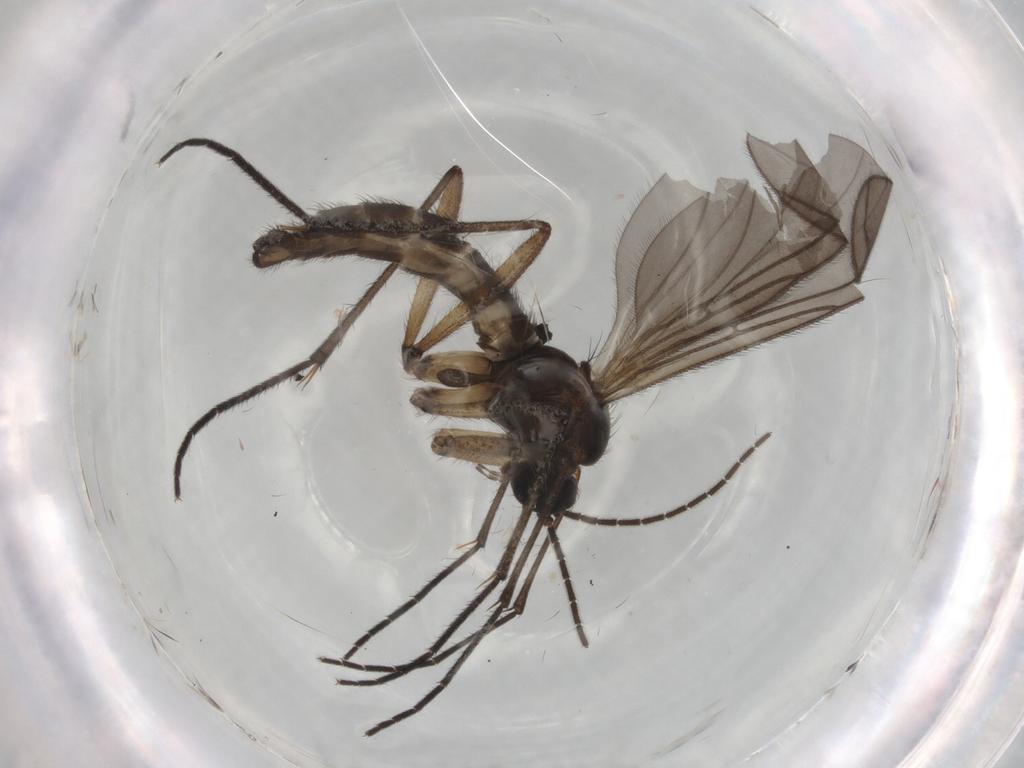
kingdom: Animalia
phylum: Arthropoda
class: Insecta
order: Diptera
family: Sciaridae
